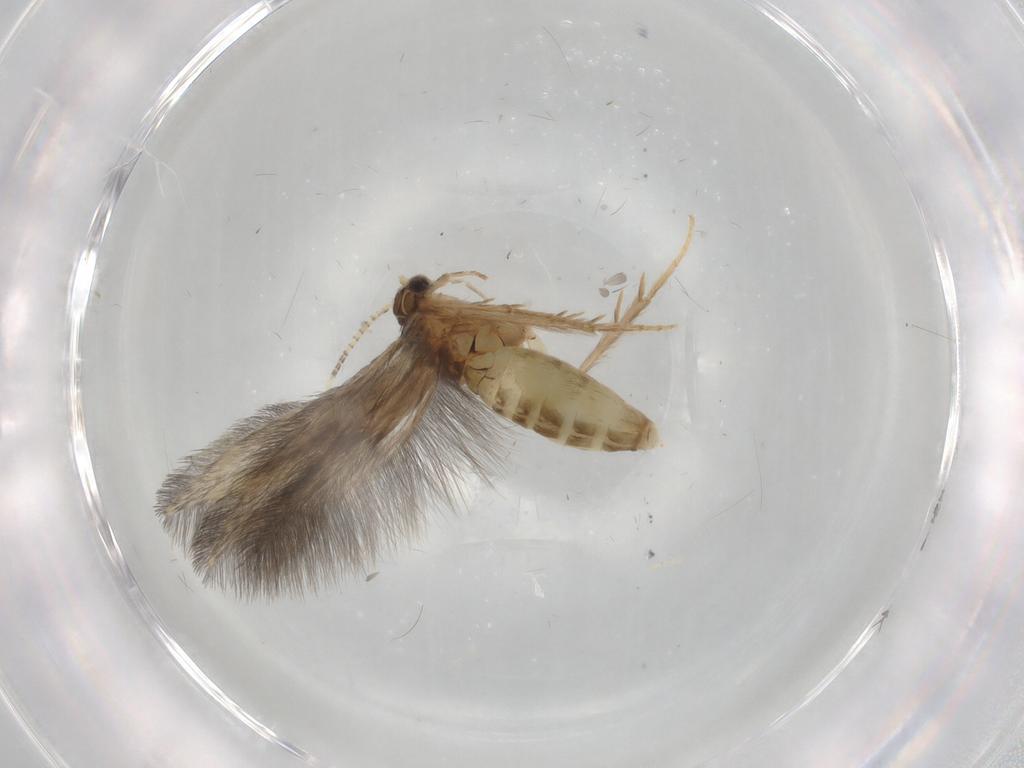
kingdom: Animalia
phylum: Arthropoda
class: Insecta
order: Trichoptera
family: Hydroptilidae
